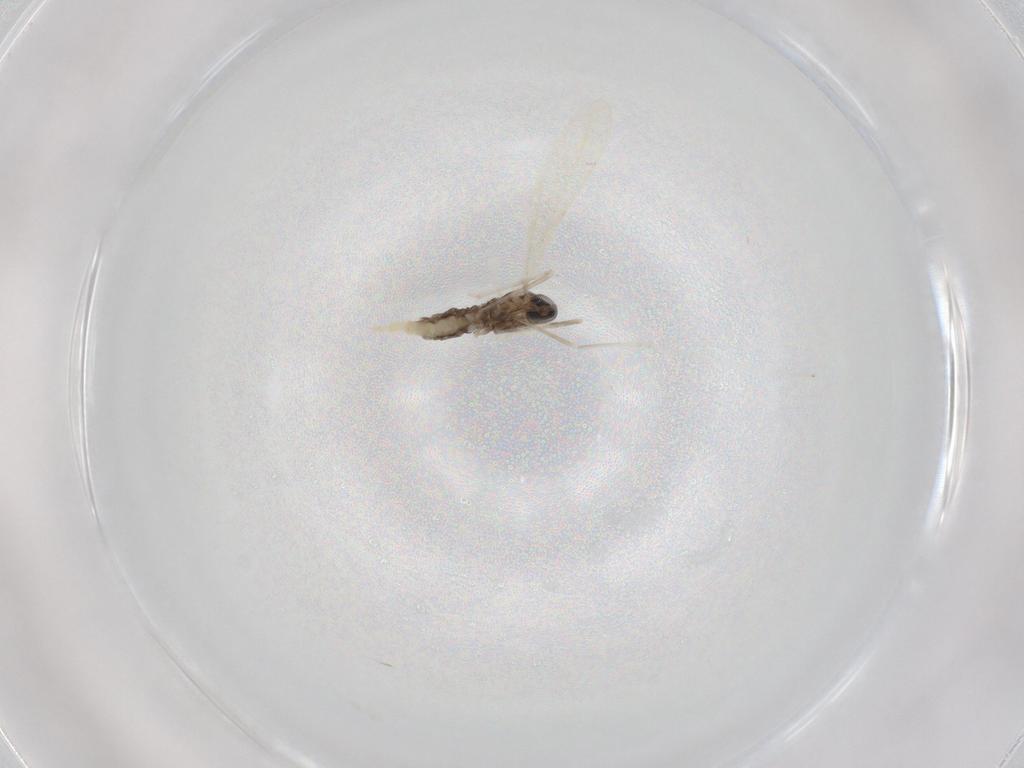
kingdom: Animalia
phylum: Arthropoda
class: Insecta
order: Diptera
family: Cecidomyiidae
